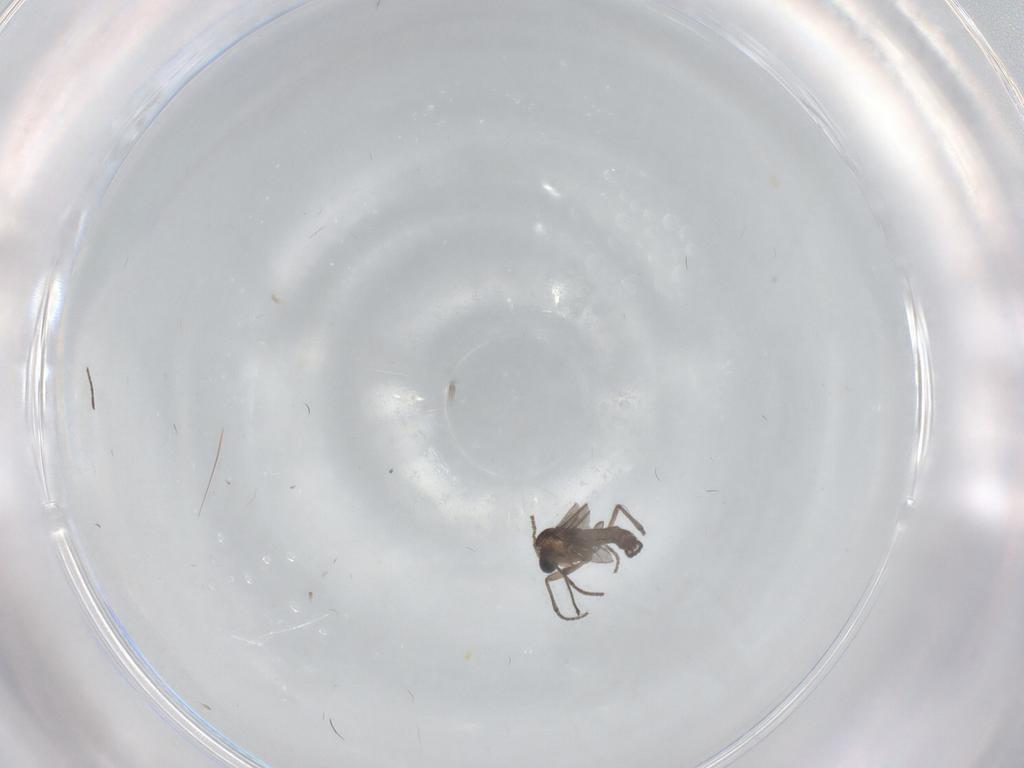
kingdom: Animalia
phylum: Arthropoda
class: Insecta
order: Diptera
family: Sciaridae
